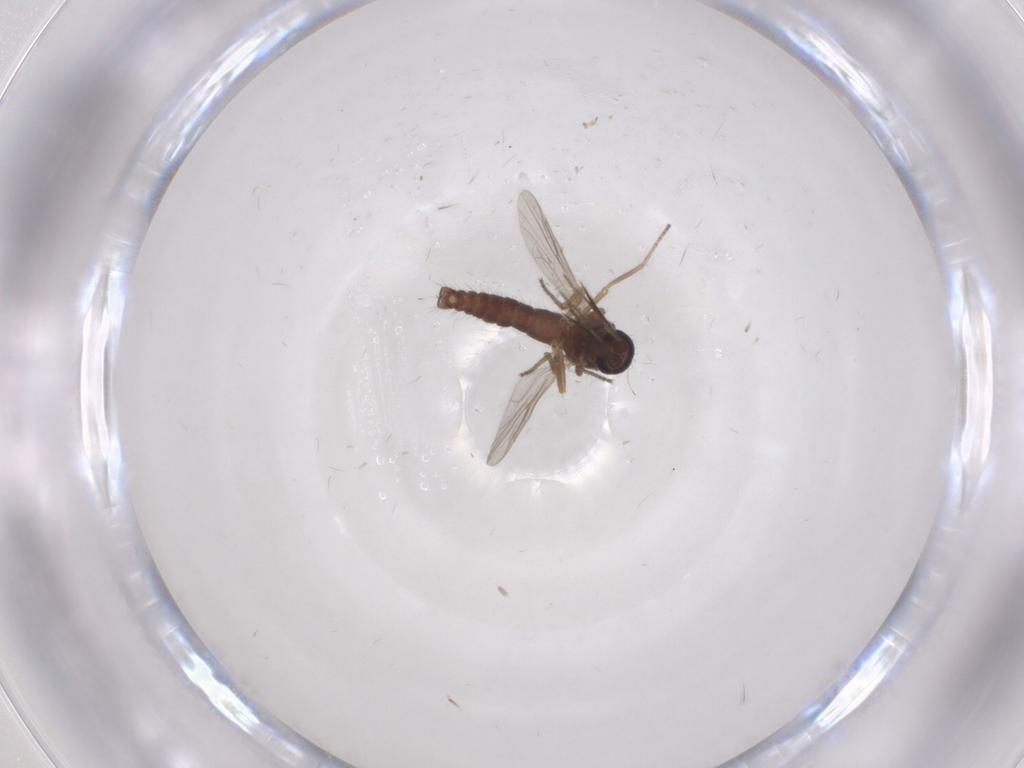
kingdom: Animalia
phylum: Arthropoda
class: Insecta
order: Diptera
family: Ceratopogonidae
